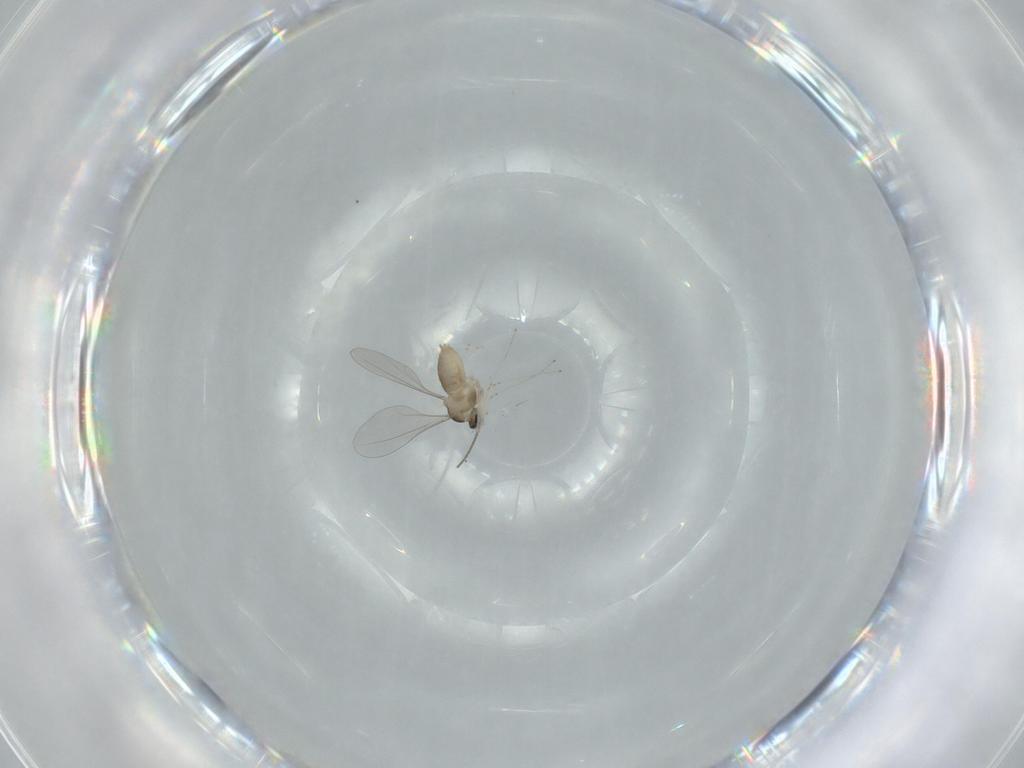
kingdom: Animalia
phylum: Arthropoda
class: Insecta
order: Diptera
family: Cecidomyiidae
